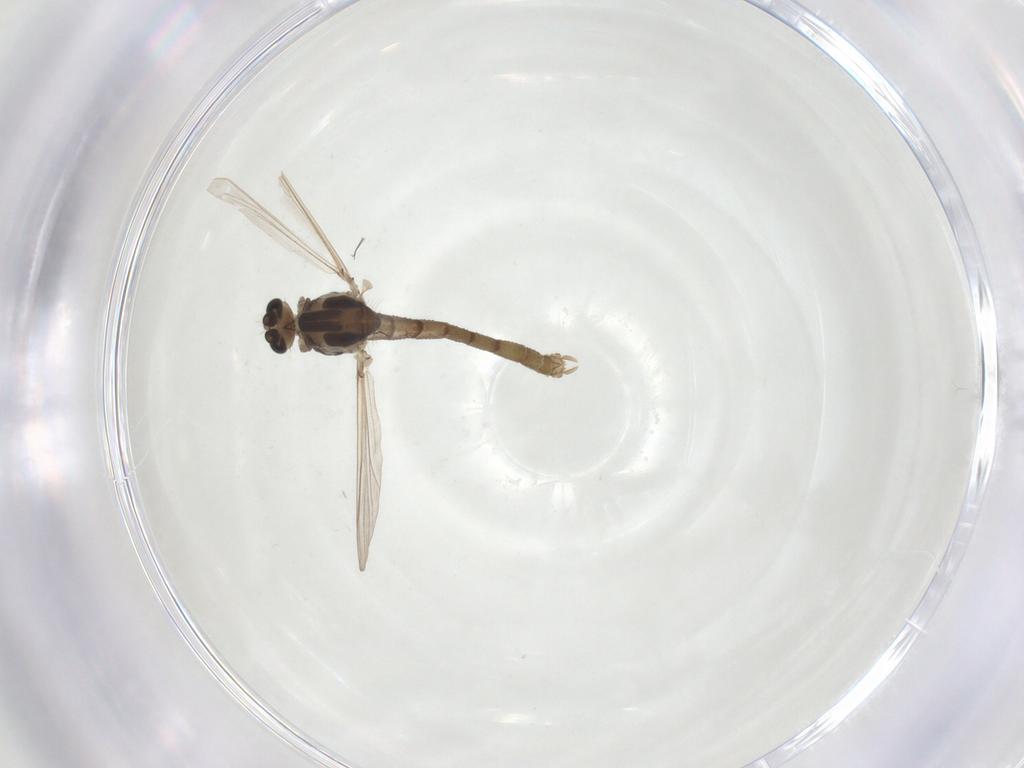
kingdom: Animalia
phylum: Arthropoda
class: Insecta
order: Diptera
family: Chironomidae
